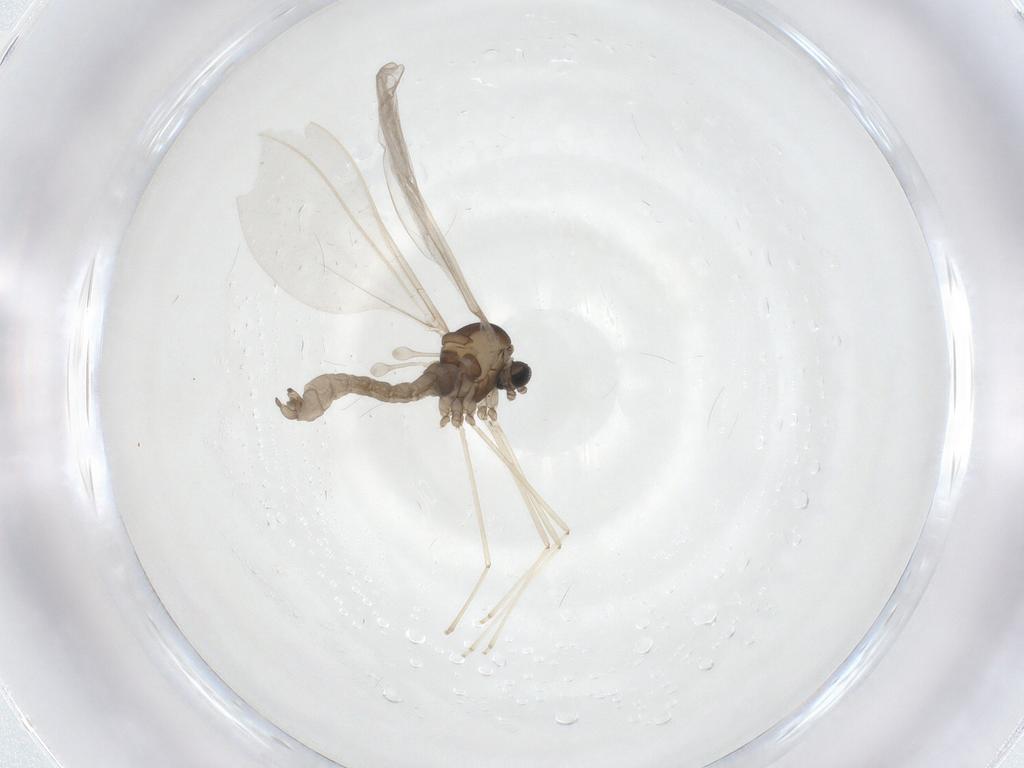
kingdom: Animalia
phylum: Arthropoda
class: Insecta
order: Diptera
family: Cecidomyiidae
